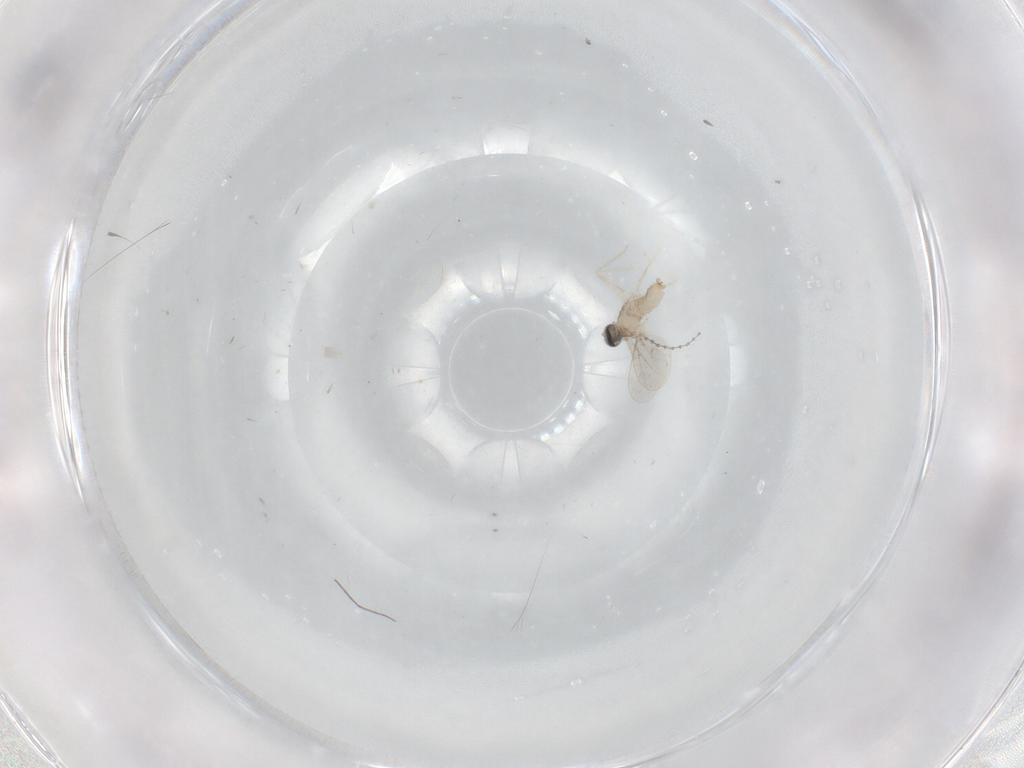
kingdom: Animalia
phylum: Arthropoda
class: Insecta
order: Diptera
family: Cecidomyiidae
